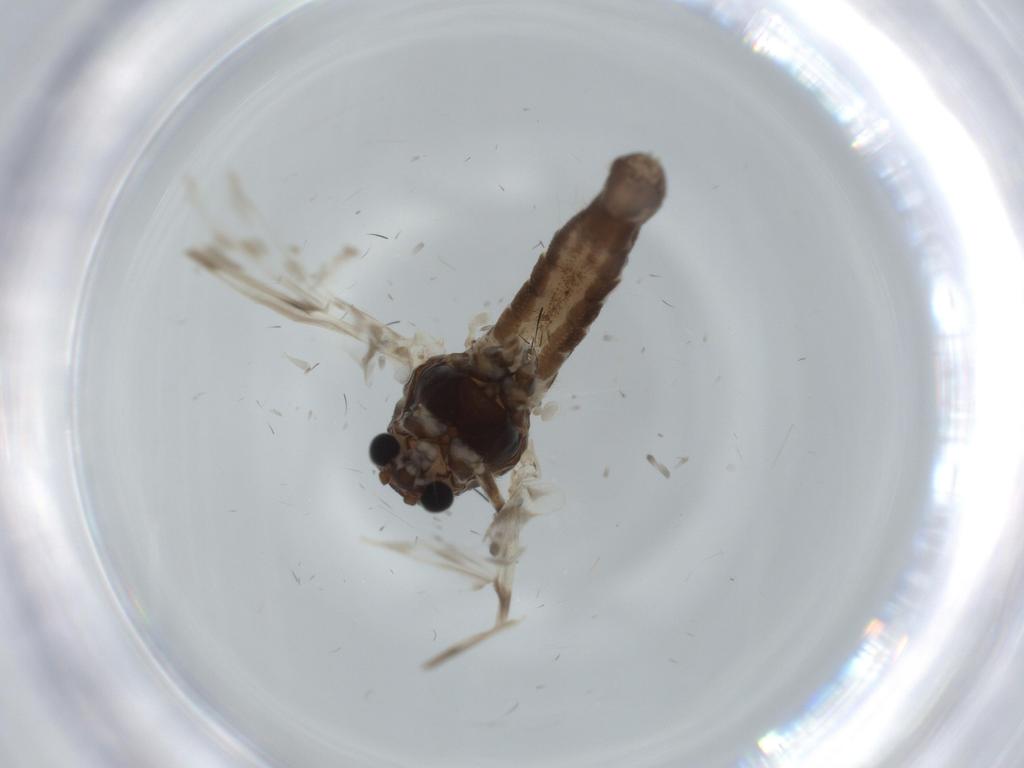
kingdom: Animalia
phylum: Arthropoda
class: Insecta
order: Diptera
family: Chironomidae
